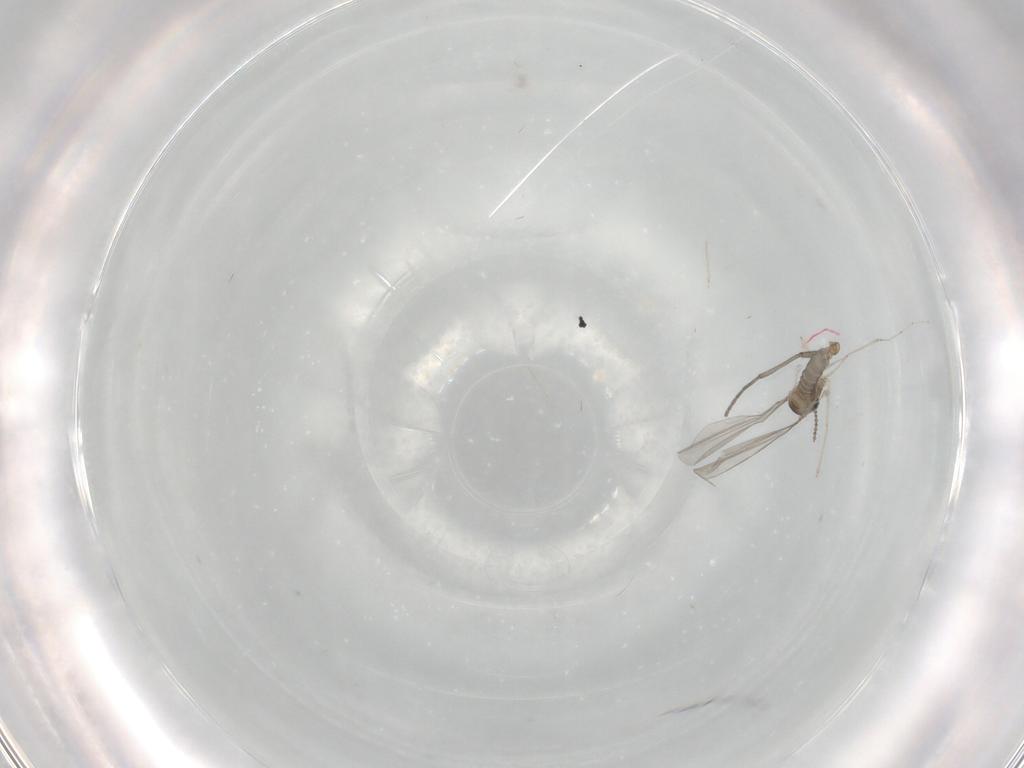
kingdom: Animalia
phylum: Arthropoda
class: Insecta
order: Diptera
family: Cecidomyiidae
